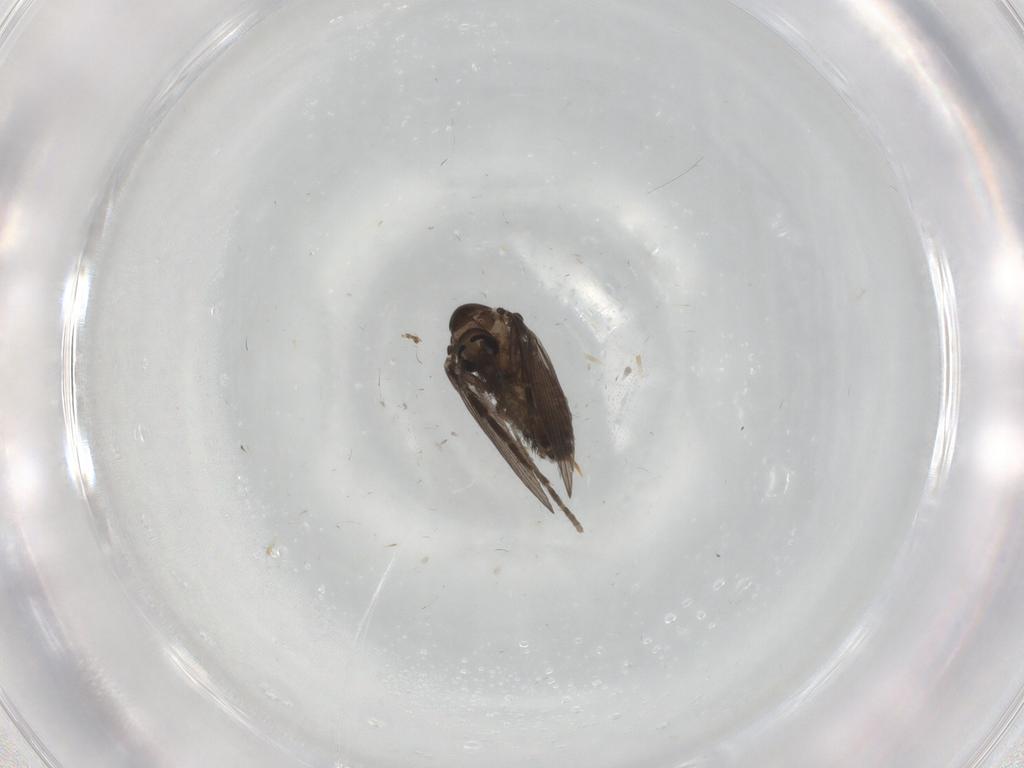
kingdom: Animalia
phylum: Arthropoda
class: Insecta
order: Diptera
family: Psychodidae
